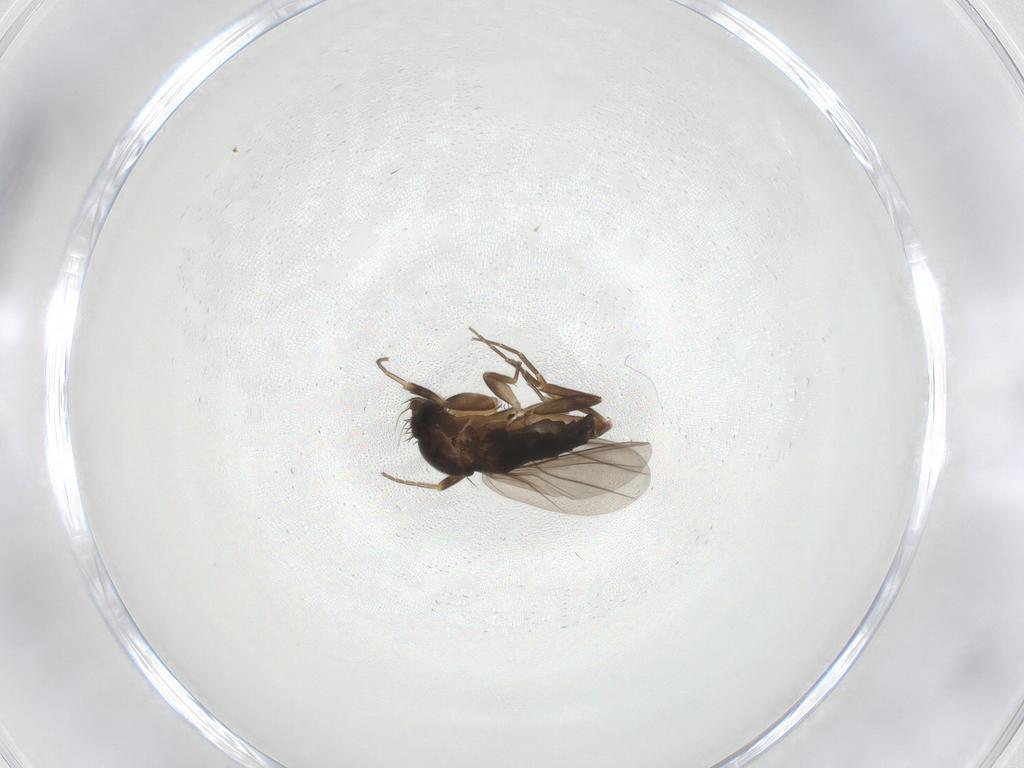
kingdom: Animalia
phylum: Arthropoda
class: Insecta
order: Diptera
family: Phoridae
